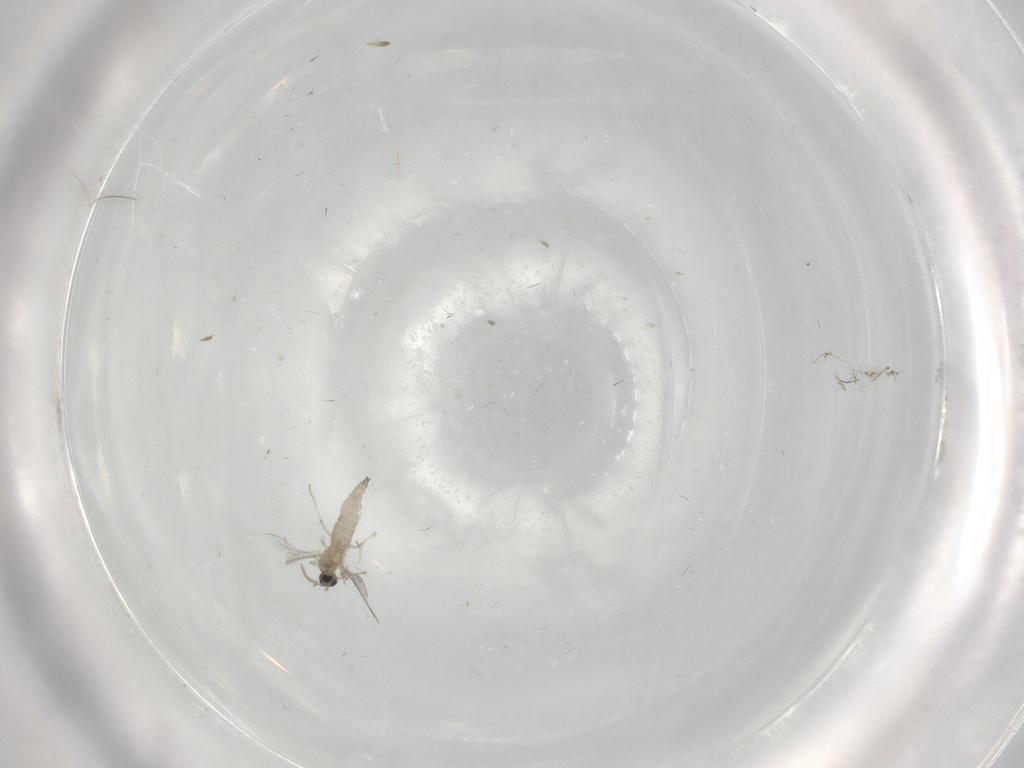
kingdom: Animalia
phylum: Arthropoda
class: Insecta
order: Diptera
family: Cecidomyiidae
